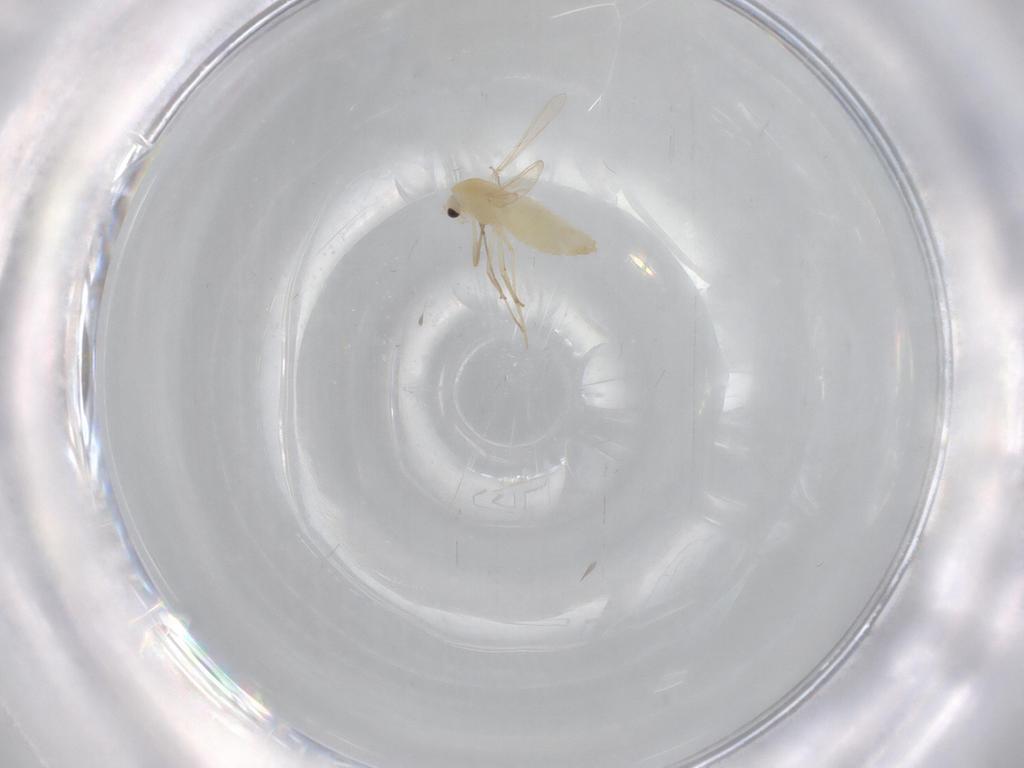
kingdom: Animalia
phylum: Arthropoda
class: Insecta
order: Diptera
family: Chironomidae
